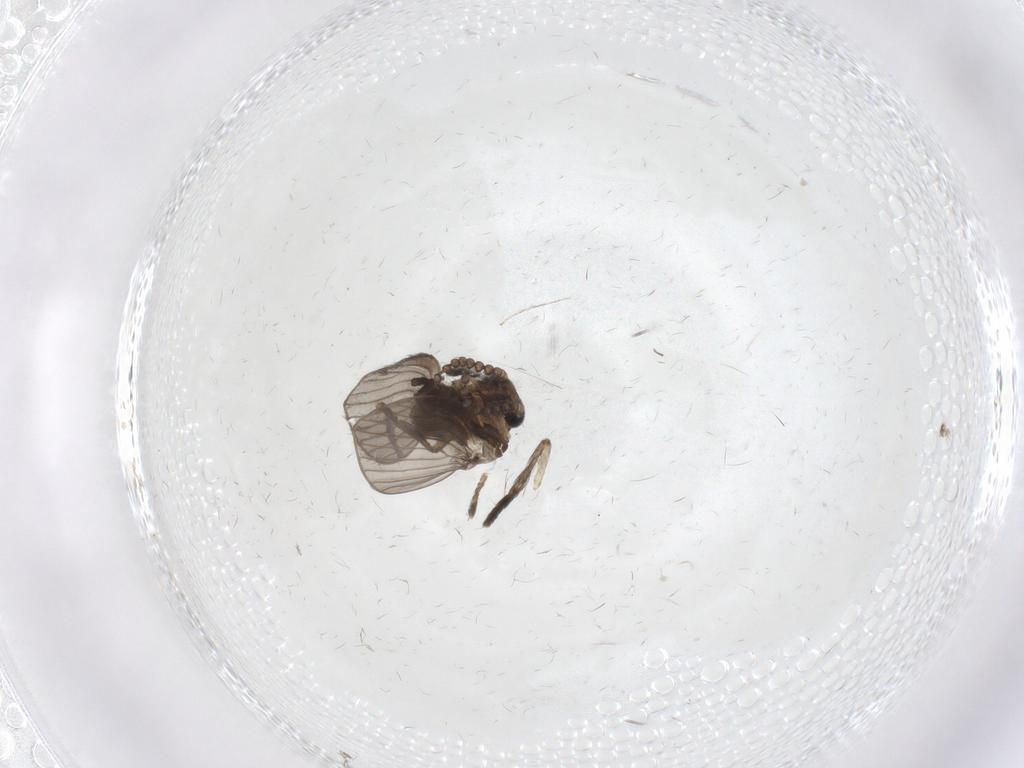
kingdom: Animalia
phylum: Arthropoda
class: Insecta
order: Diptera
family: Psychodidae
